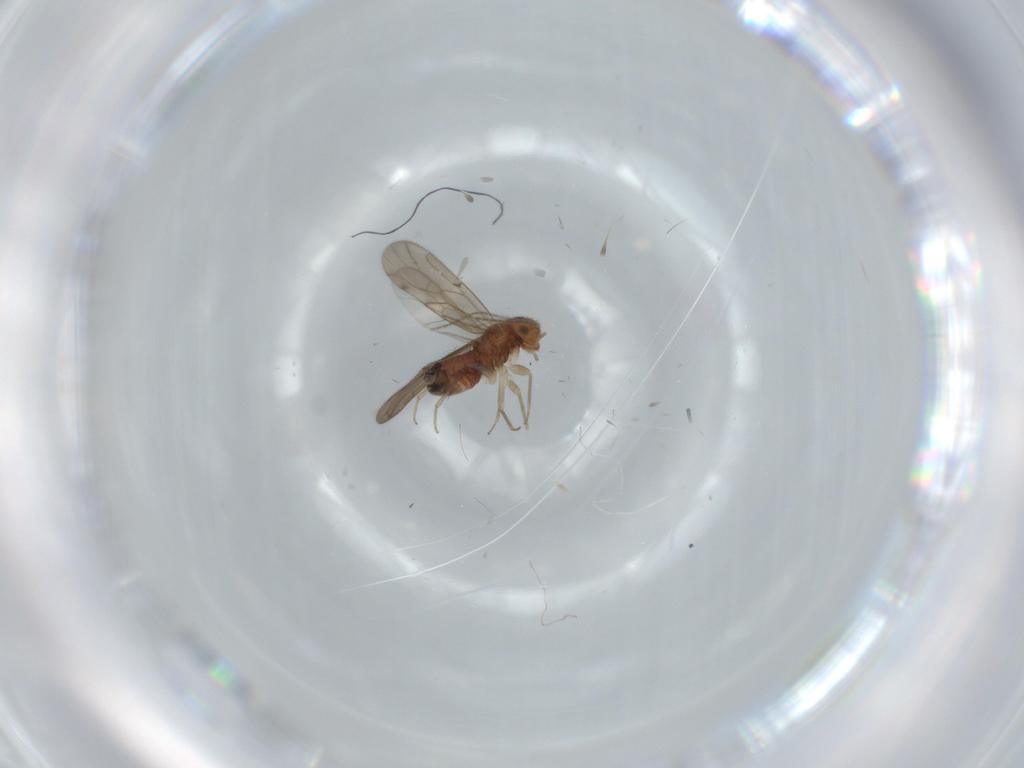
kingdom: Animalia
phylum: Arthropoda
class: Insecta
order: Psocodea
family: Ectopsocidae
